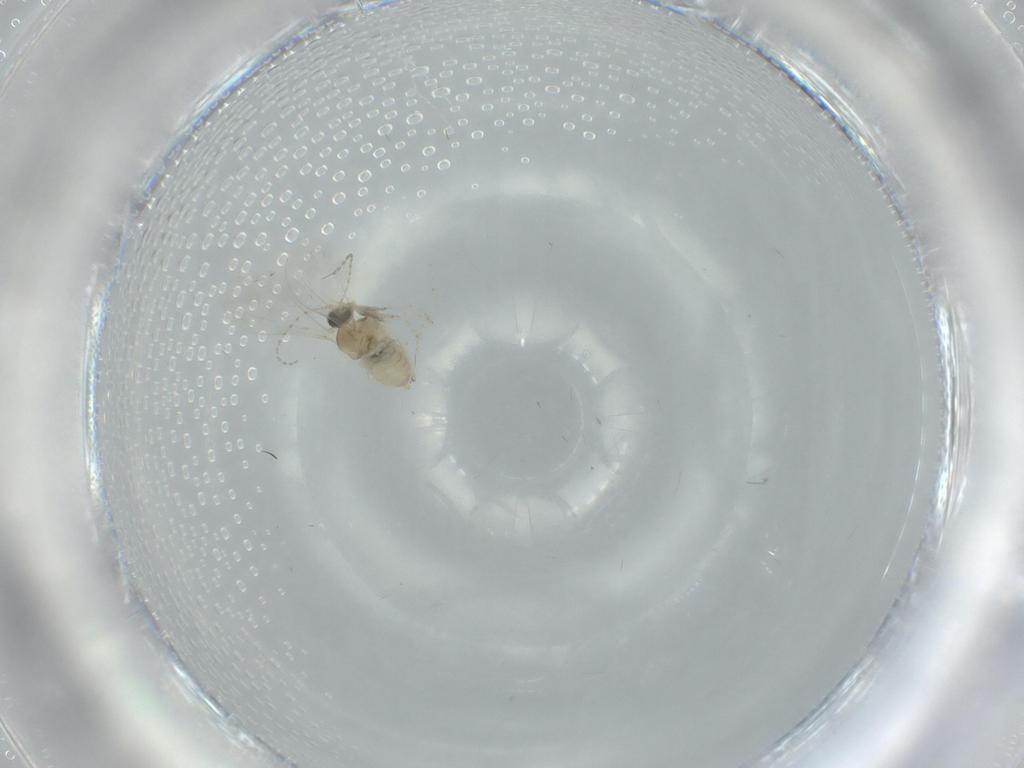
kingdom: Animalia
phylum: Arthropoda
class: Insecta
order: Diptera
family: Cecidomyiidae
